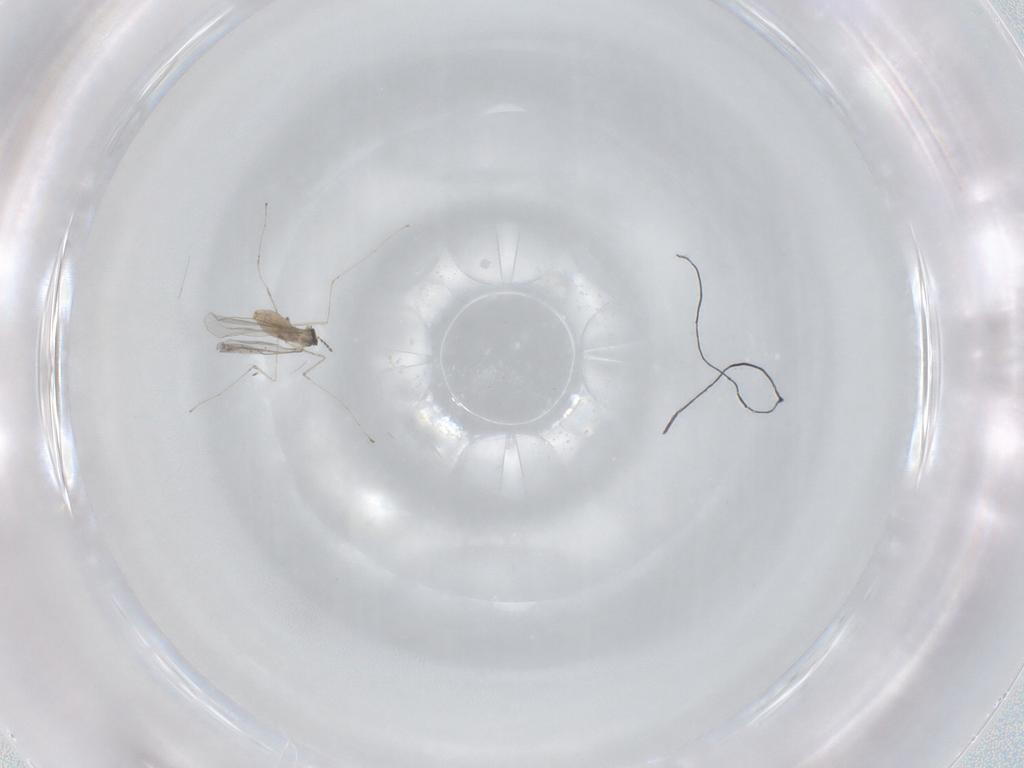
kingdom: Animalia
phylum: Arthropoda
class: Insecta
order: Diptera
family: Cecidomyiidae
